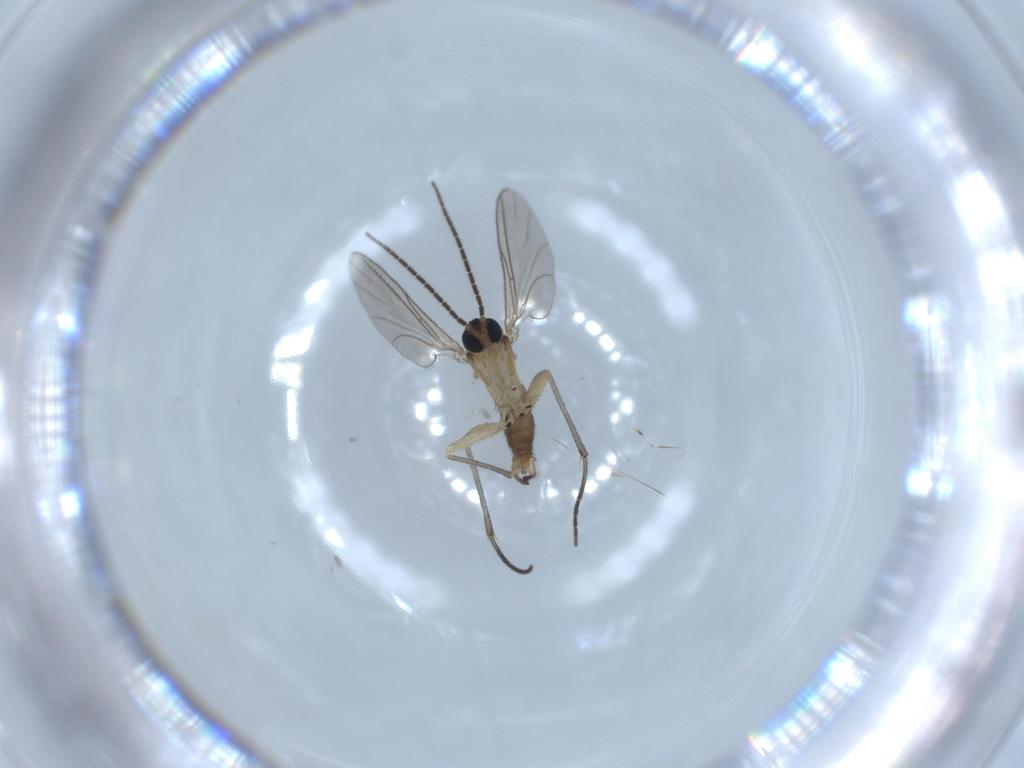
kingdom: Animalia
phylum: Arthropoda
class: Insecta
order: Diptera
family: Sciaridae
